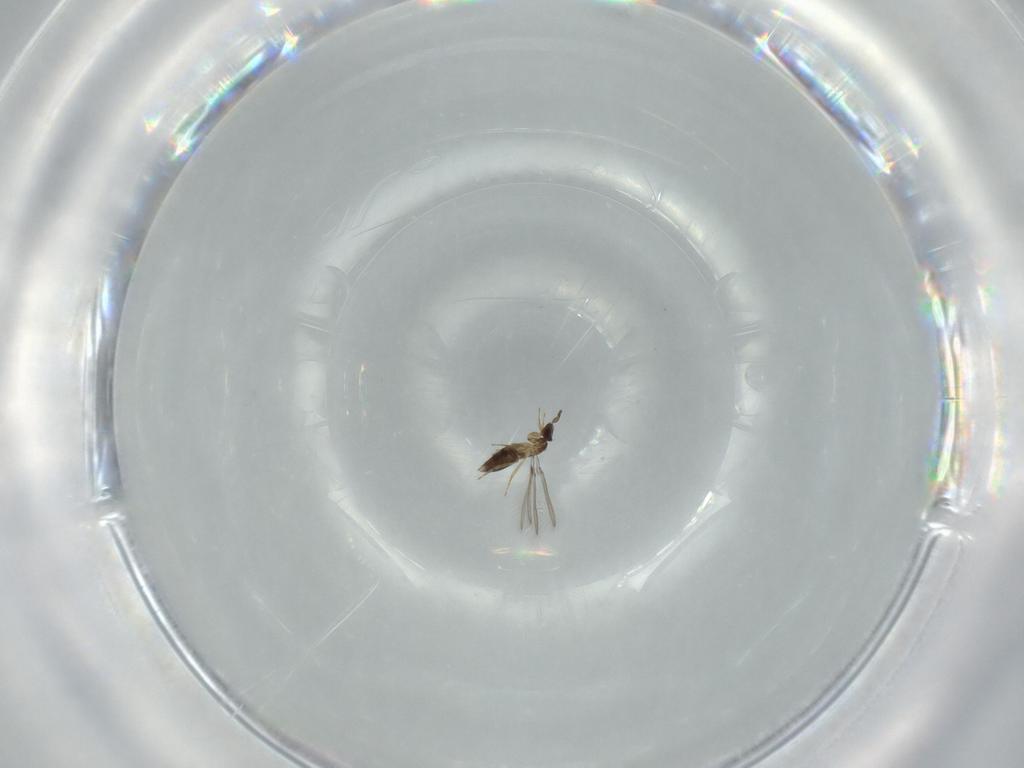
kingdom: Animalia
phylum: Arthropoda
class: Insecta
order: Hymenoptera
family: Mymaridae
